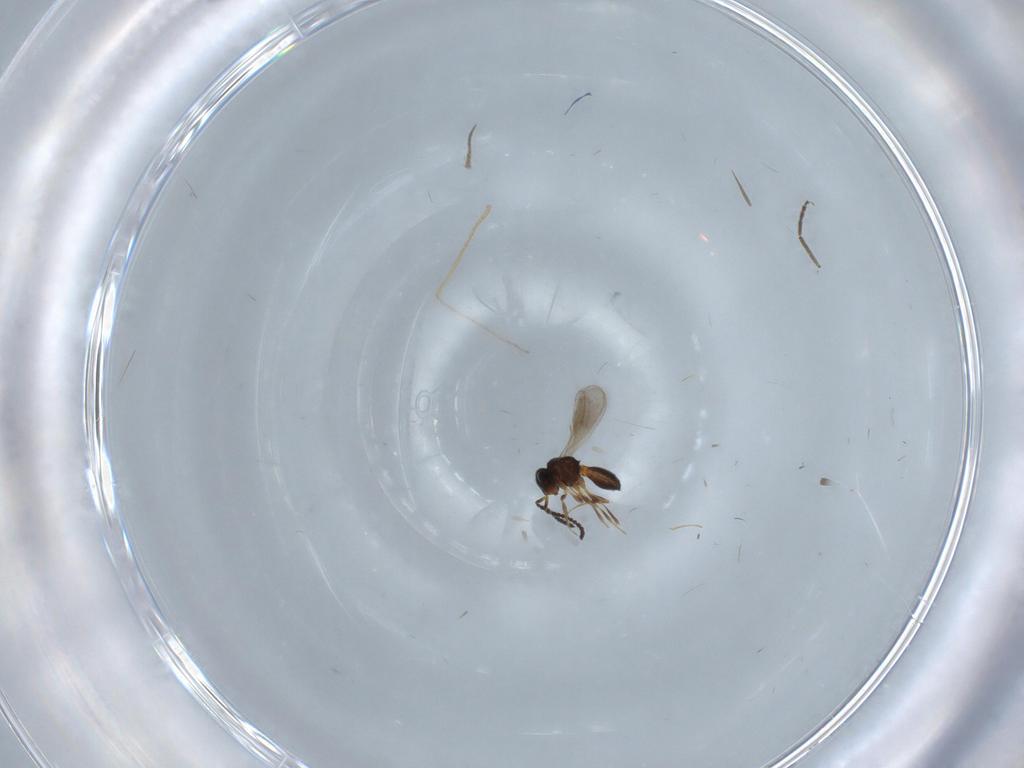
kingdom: Animalia
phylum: Arthropoda
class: Insecta
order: Hymenoptera
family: Scelionidae
